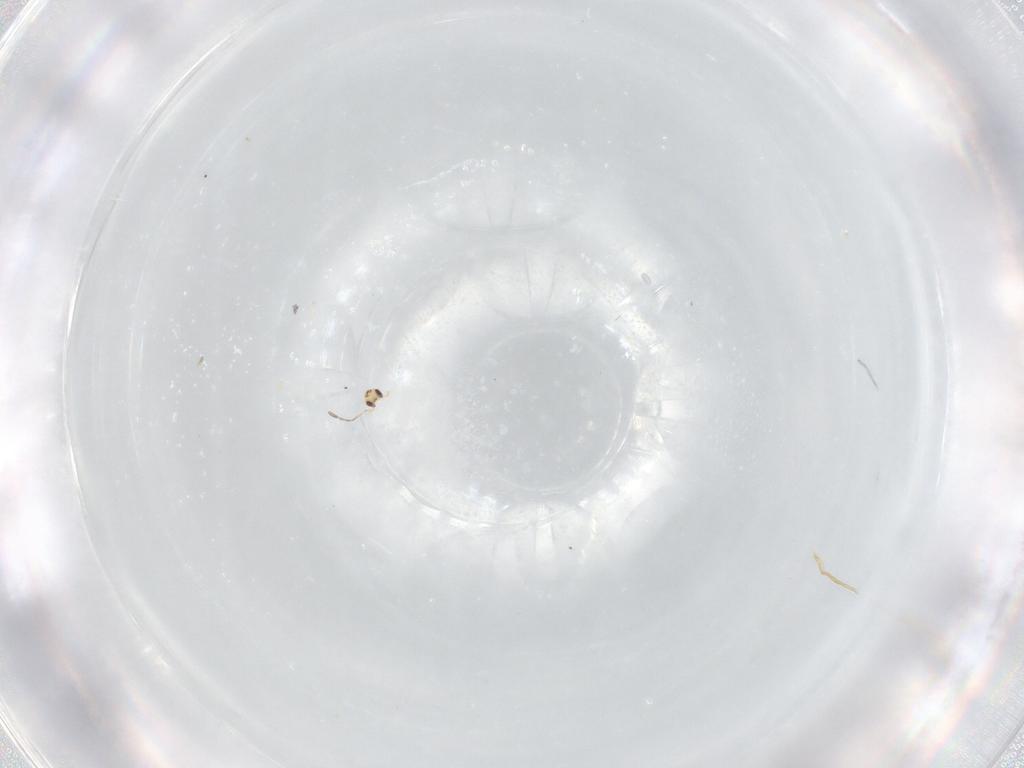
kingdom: Animalia
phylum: Arthropoda
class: Insecta
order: Hymenoptera
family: Mymaridae
